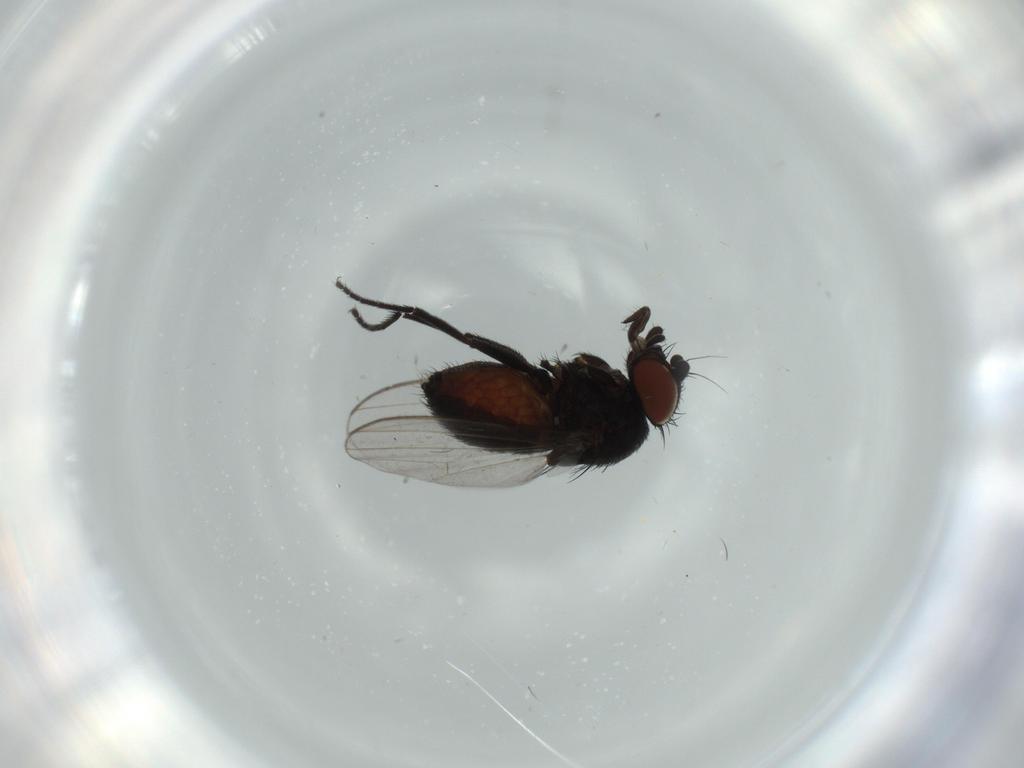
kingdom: Animalia
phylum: Arthropoda
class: Insecta
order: Diptera
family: Milichiidae
